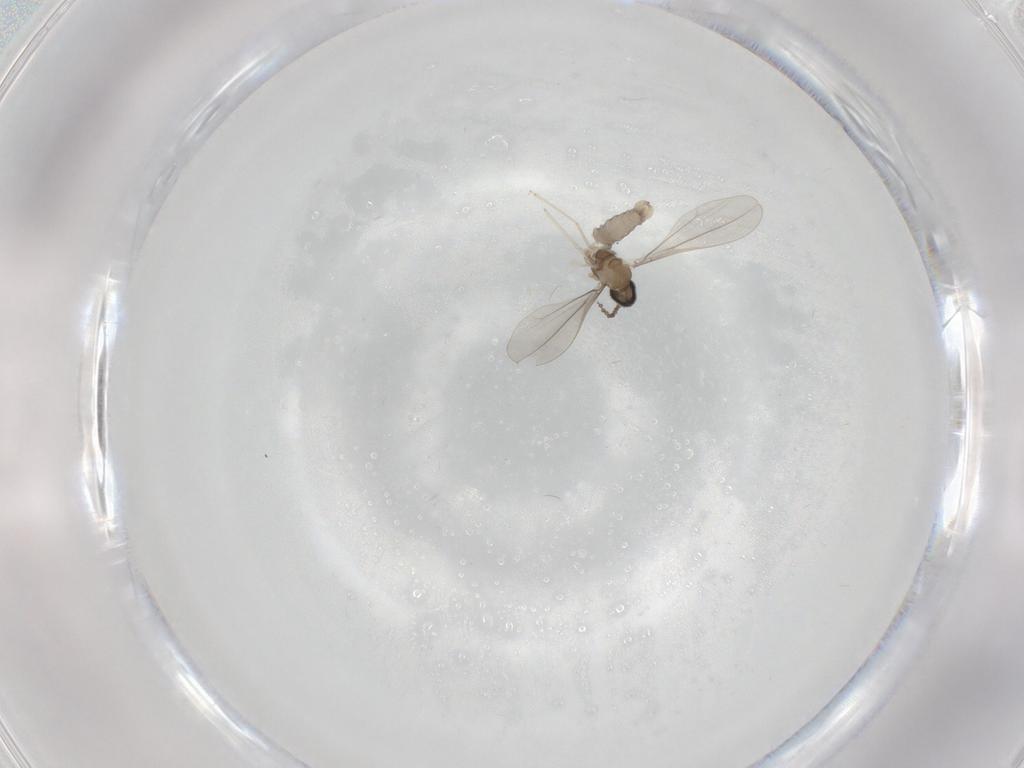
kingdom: Animalia
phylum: Arthropoda
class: Insecta
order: Diptera
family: Cecidomyiidae
